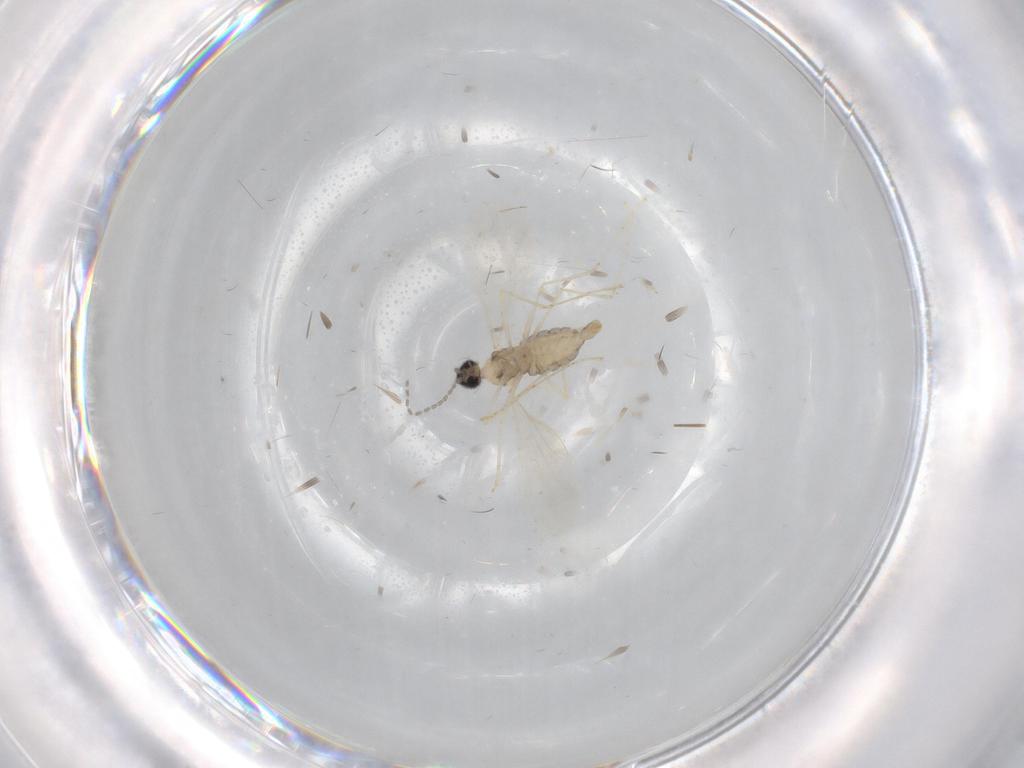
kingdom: Animalia
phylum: Arthropoda
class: Insecta
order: Diptera
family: Cecidomyiidae
